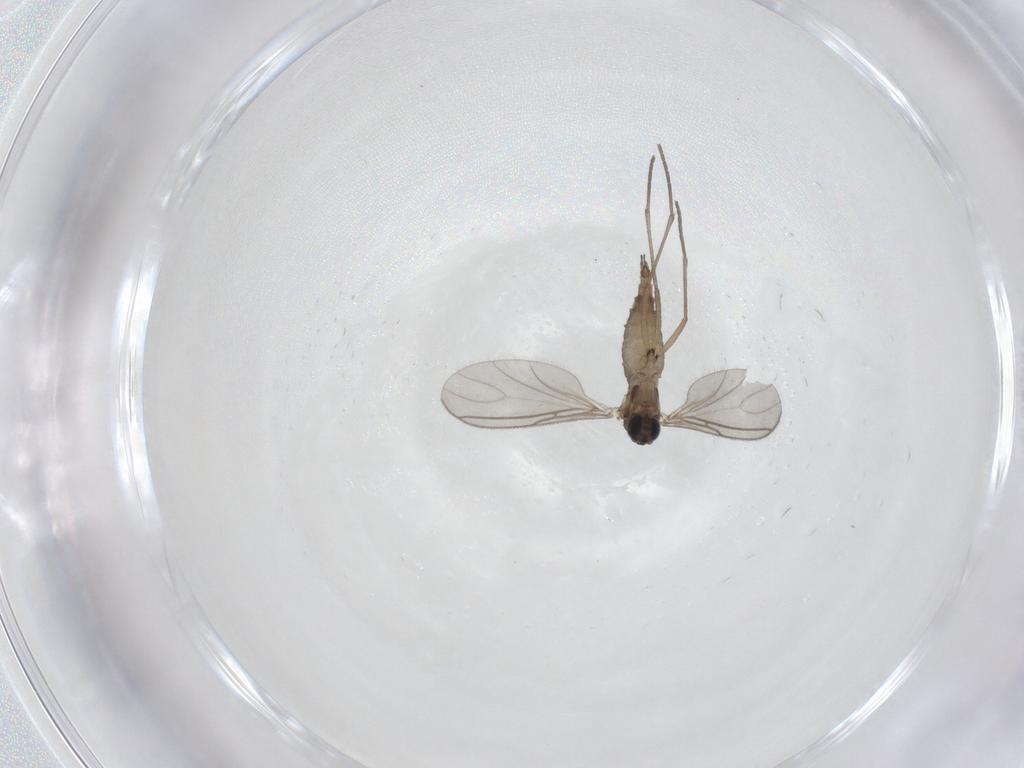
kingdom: Animalia
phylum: Arthropoda
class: Insecta
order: Diptera
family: Sciaridae
